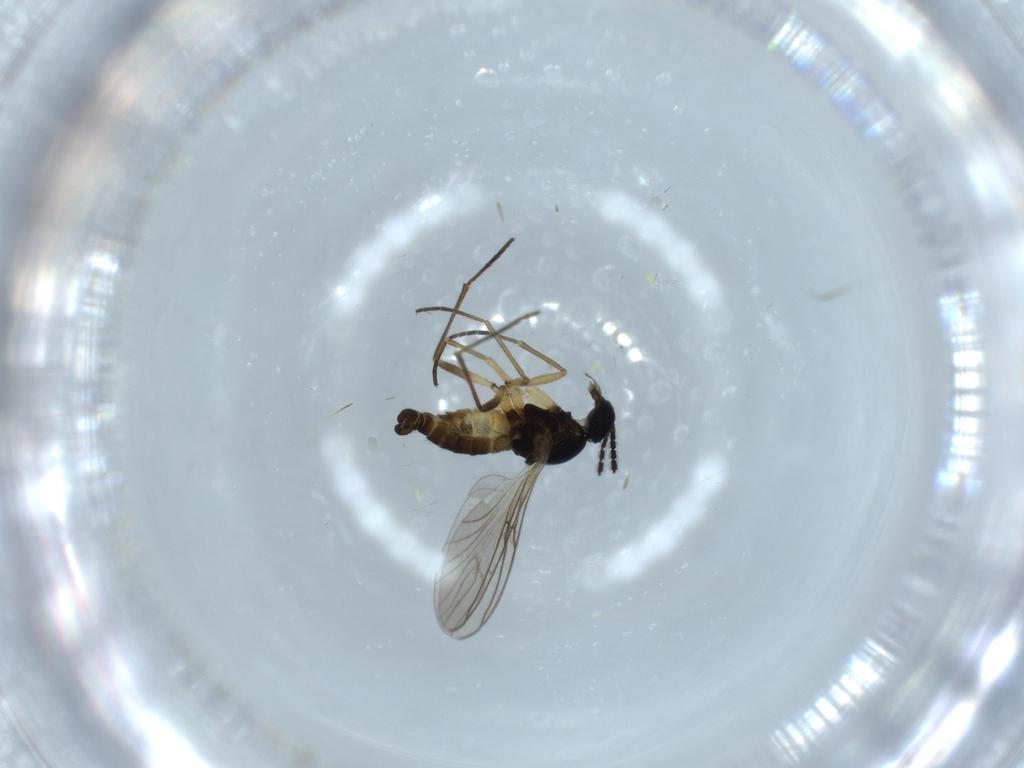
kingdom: Animalia
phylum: Arthropoda
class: Insecta
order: Diptera
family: Sciaridae
